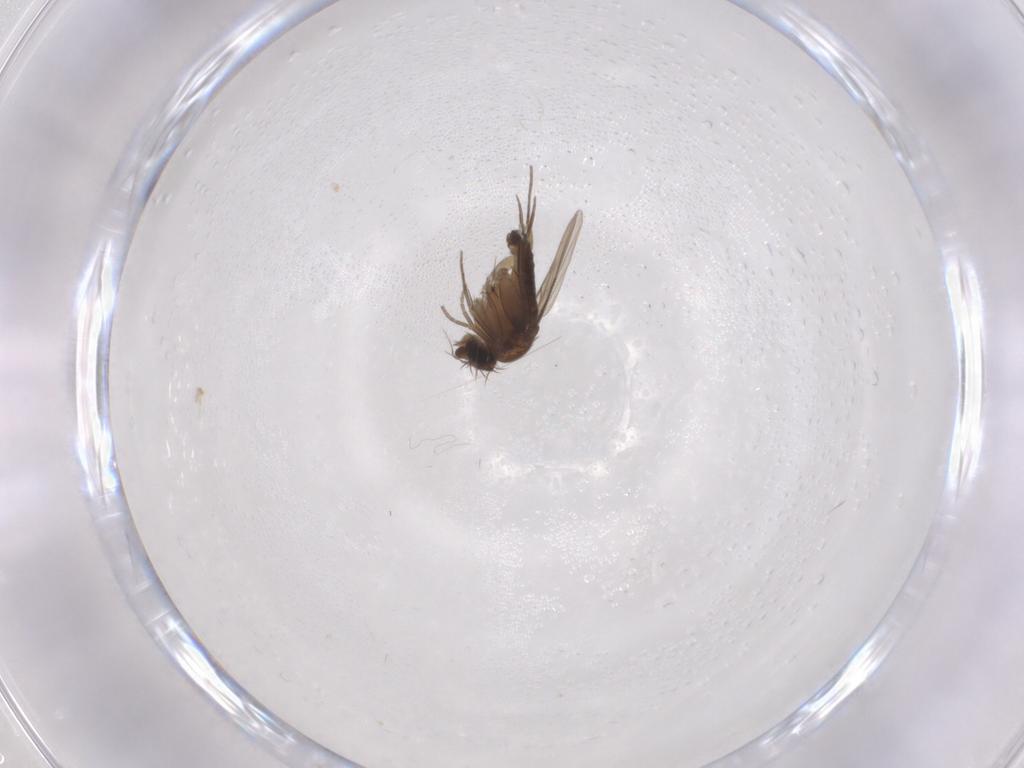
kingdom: Animalia
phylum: Arthropoda
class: Insecta
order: Diptera
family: Phoridae
